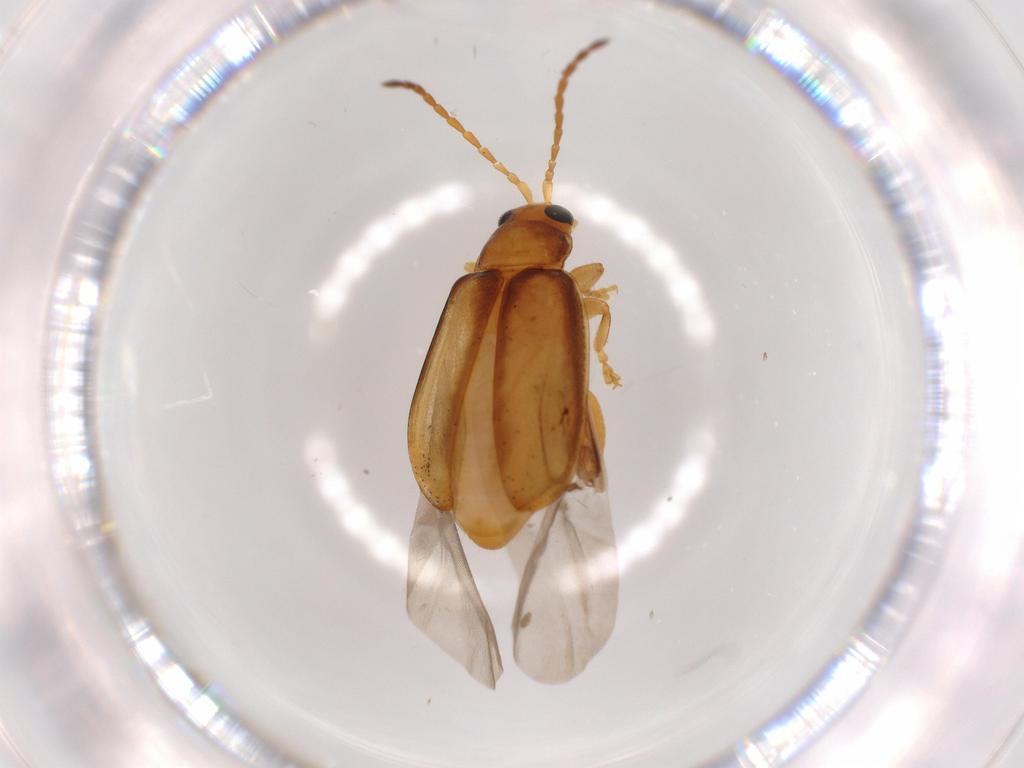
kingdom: Animalia
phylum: Arthropoda
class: Insecta
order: Coleoptera
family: Chrysomelidae
